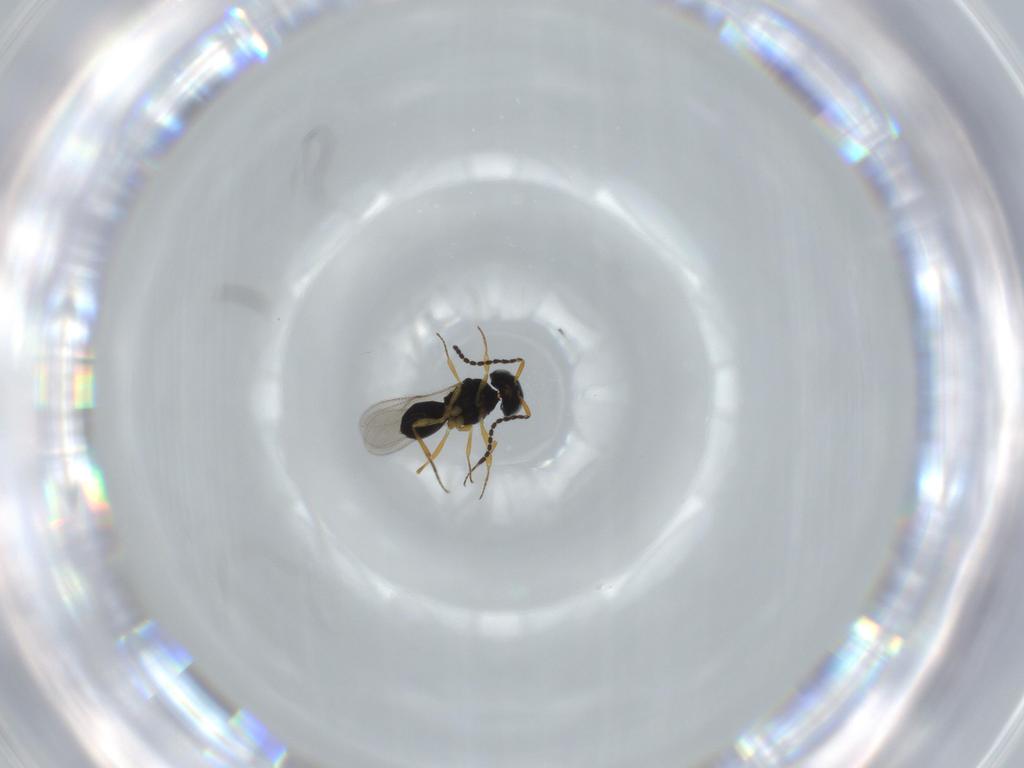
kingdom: Animalia
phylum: Arthropoda
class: Insecta
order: Hymenoptera
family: Scelionidae
